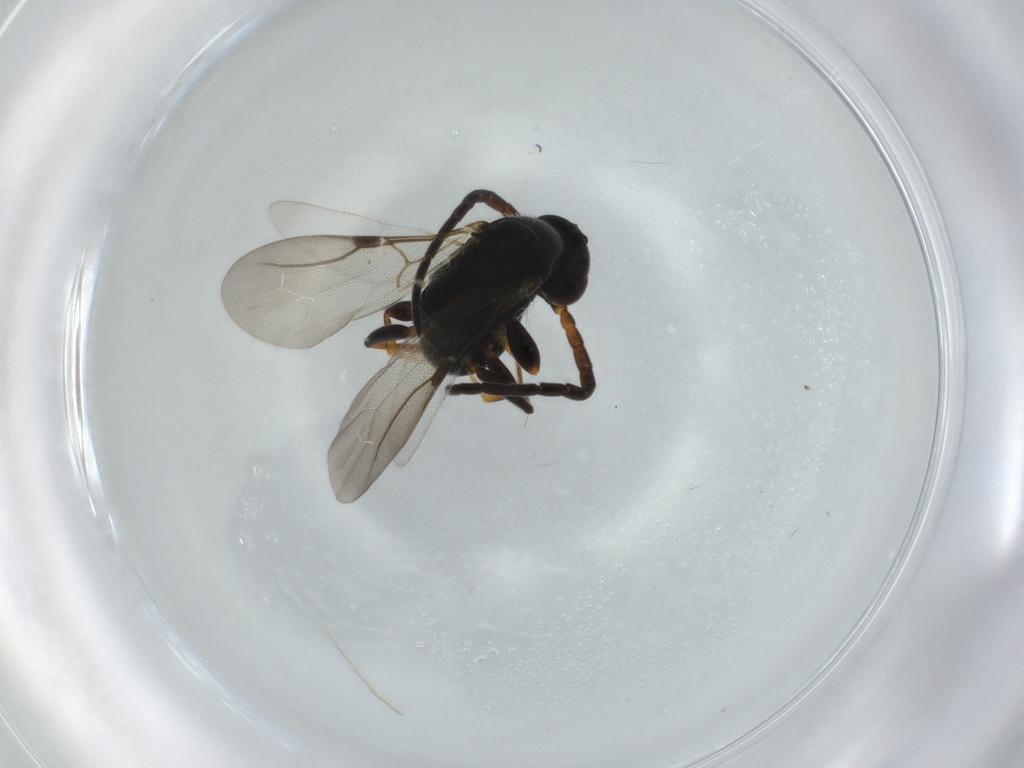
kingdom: Animalia
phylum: Arthropoda
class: Insecta
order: Hymenoptera
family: Bethylidae
